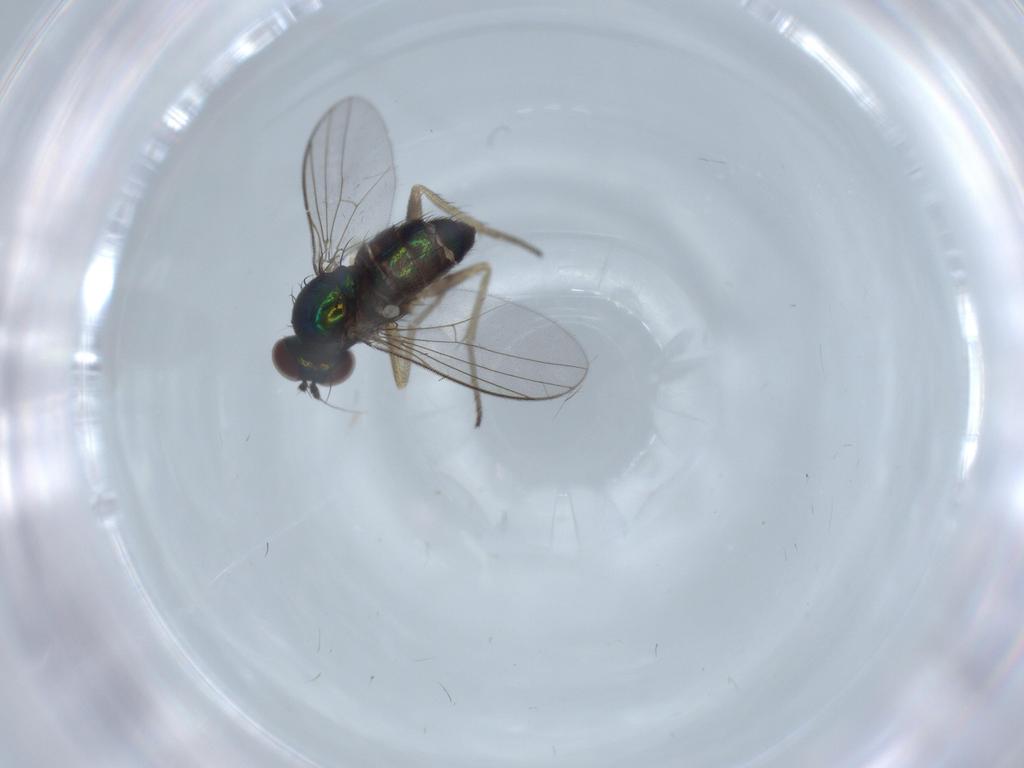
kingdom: Animalia
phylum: Arthropoda
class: Insecta
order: Diptera
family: Dolichopodidae
